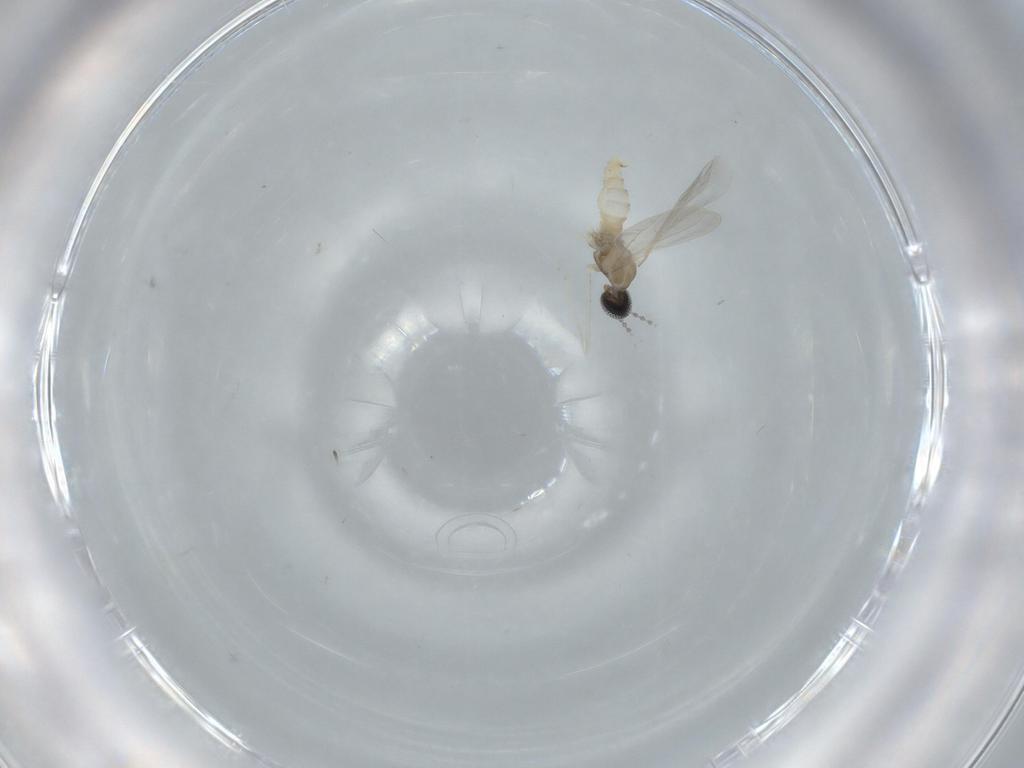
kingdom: Animalia
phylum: Arthropoda
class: Insecta
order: Diptera
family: Cecidomyiidae
